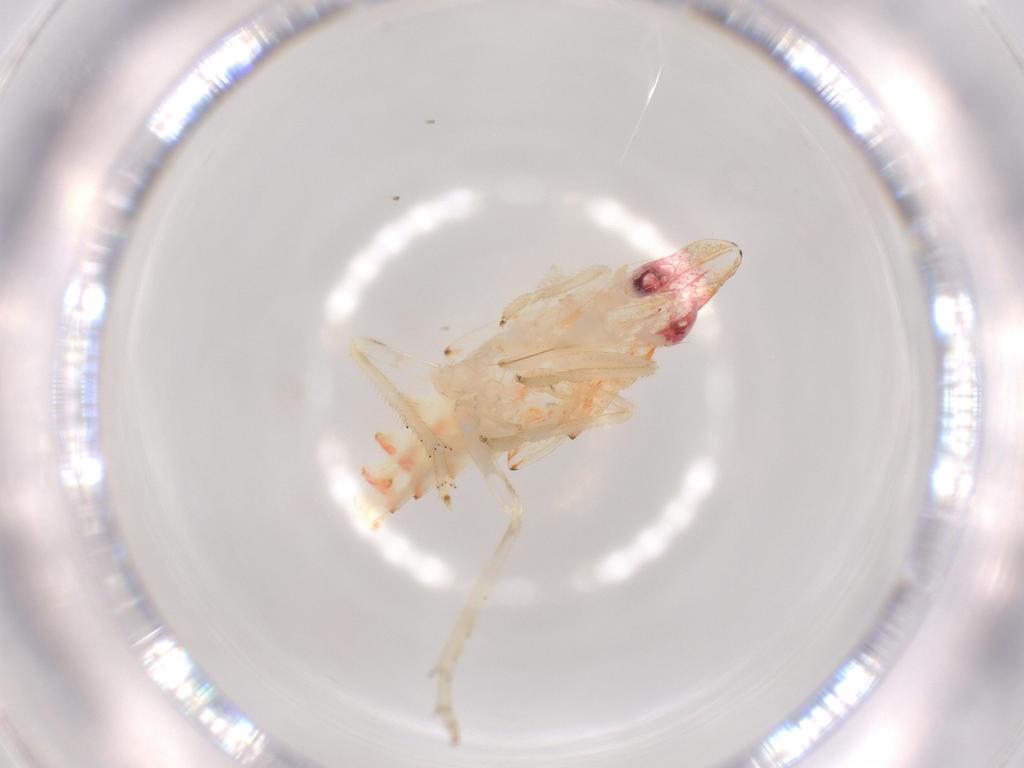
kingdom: Animalia
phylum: Arthropoda
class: Insecta
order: Hemiptera
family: Tropiduchidae
